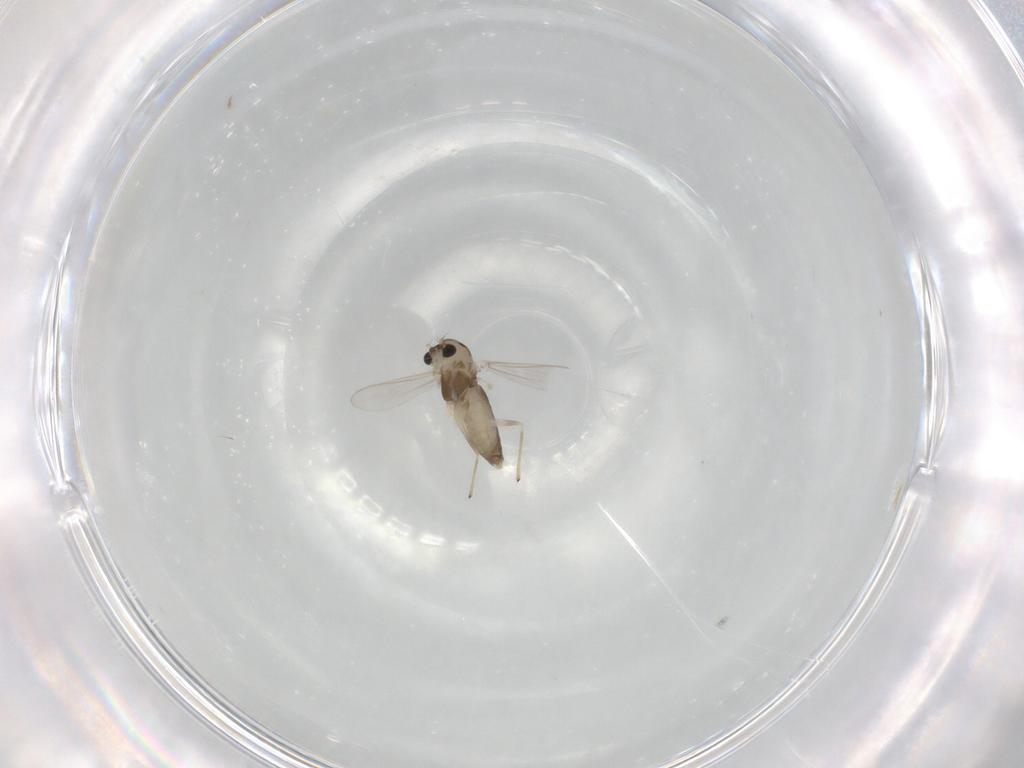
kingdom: Animalia
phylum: Arthropoda
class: Insecta
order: Diptera
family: Chironomidae
